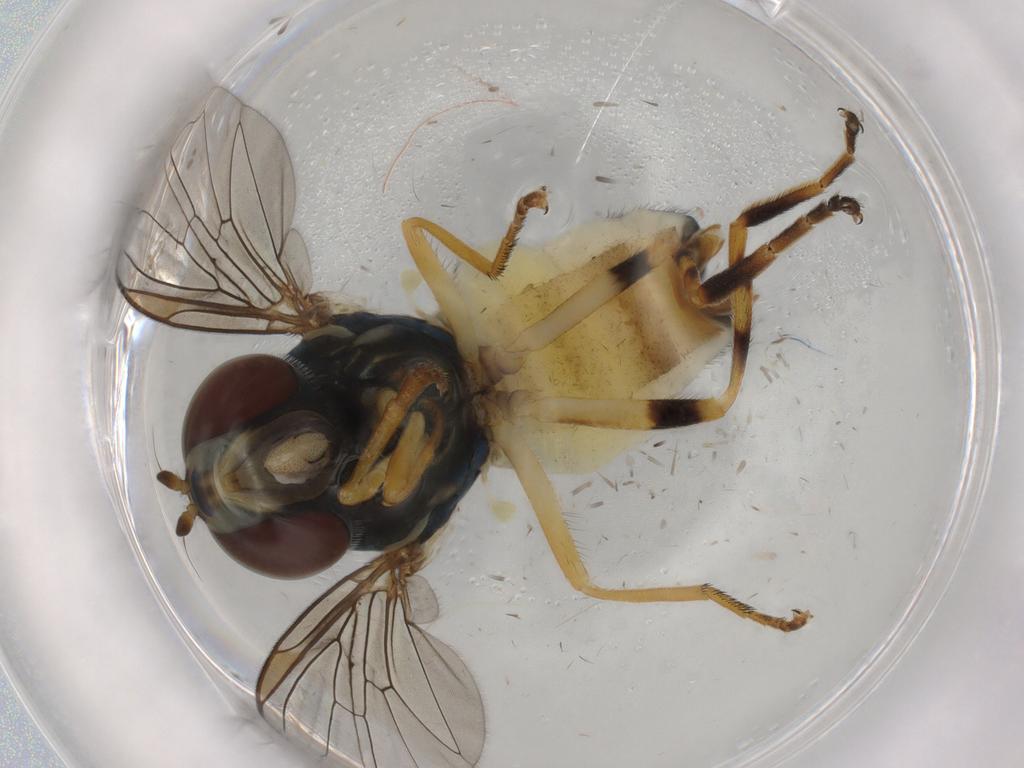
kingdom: Animalia
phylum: Arthropoda
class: Insecta
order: Diptera
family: Syrphidae
